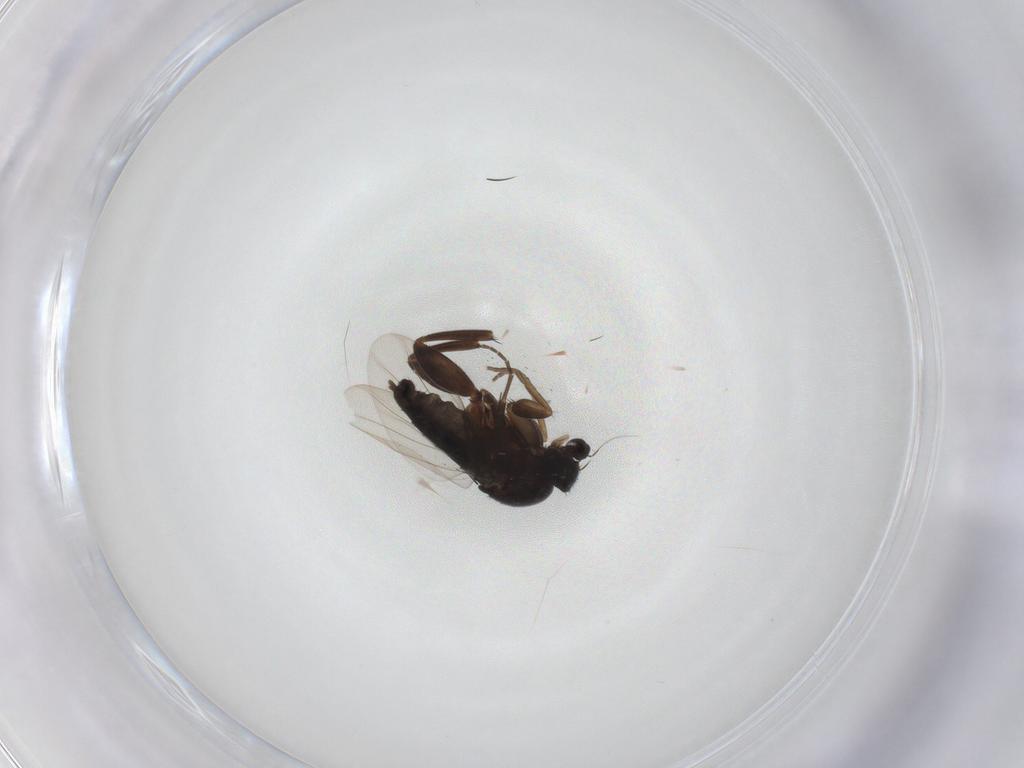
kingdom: Animalia
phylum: Arthropoda
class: Insecta
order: Diptera
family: Phoridae
